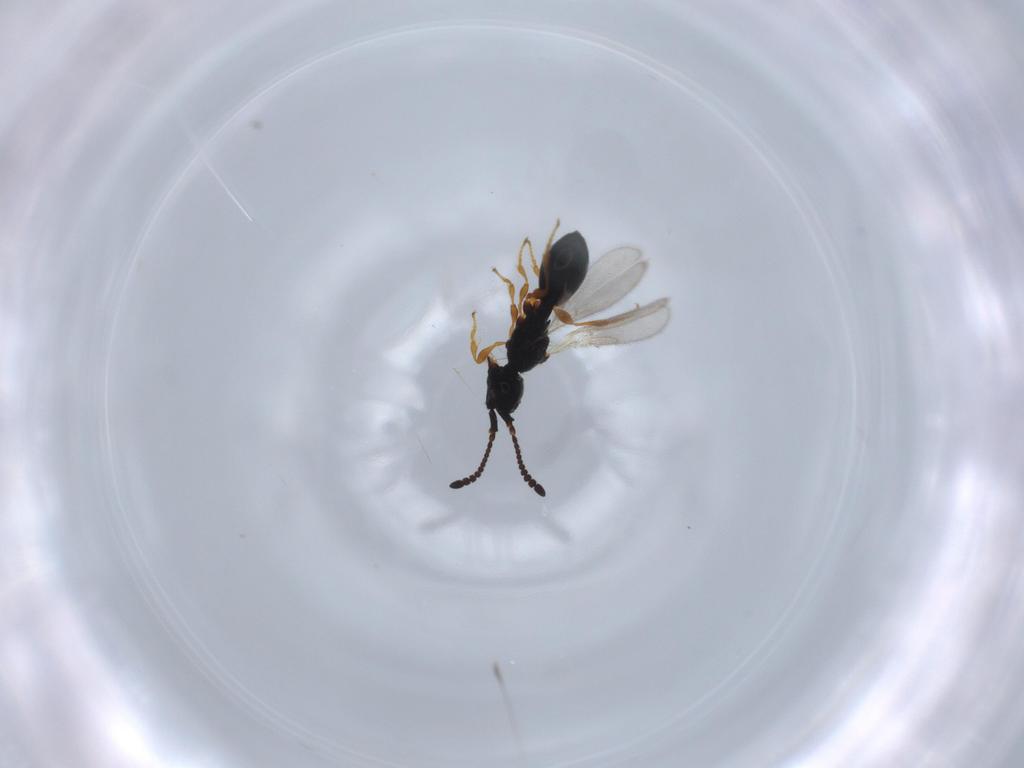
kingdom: Animalia
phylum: Arthropoda
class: Insecta
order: Hymenoptera
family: Diapriidae
